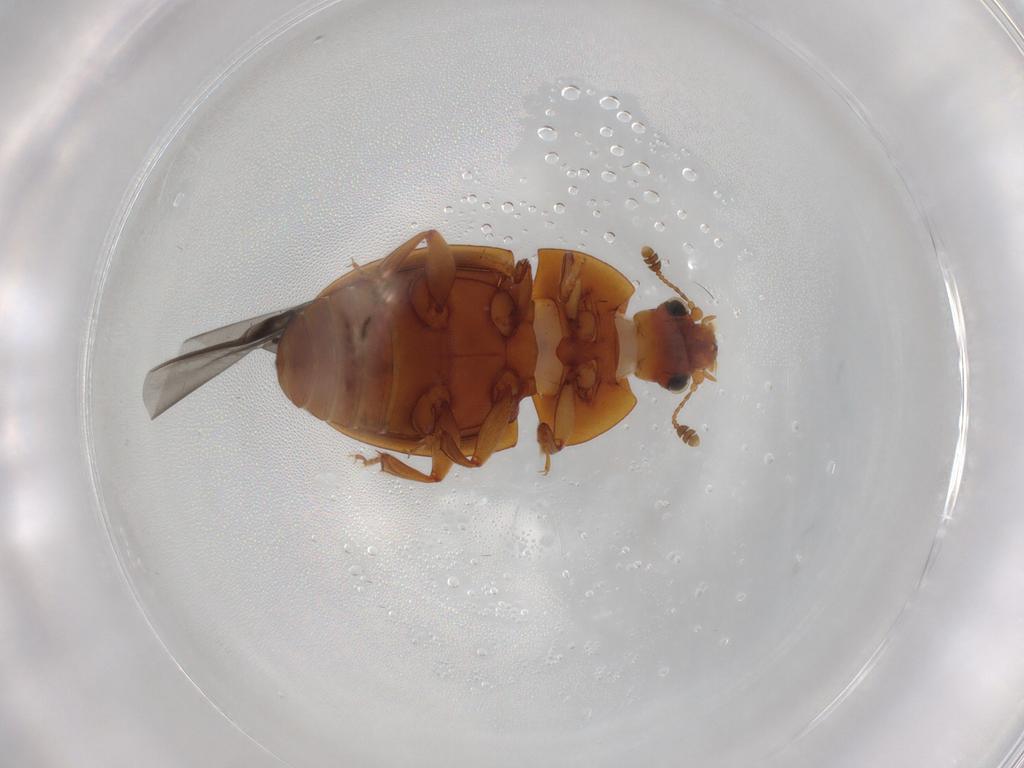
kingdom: Animalia
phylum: Arthropoda
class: Insecta
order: Coleoptera
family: Nitidulidae
